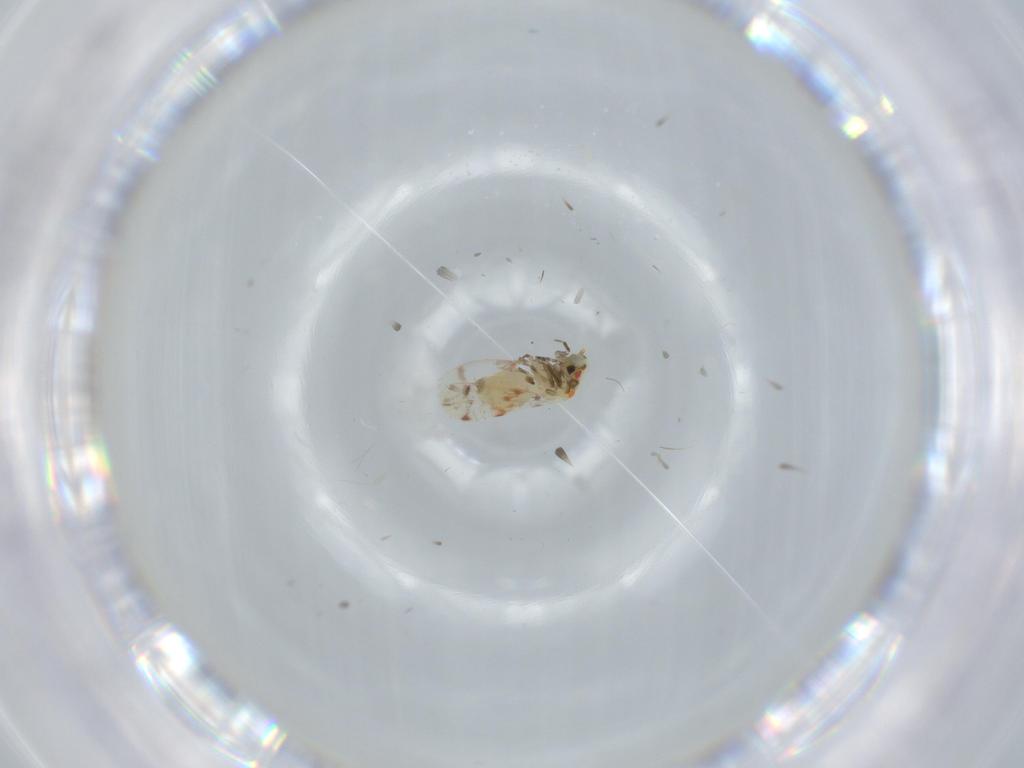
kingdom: Animalia
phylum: Arthropoda
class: Insecta
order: Hemiptera
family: Aleyrodidae
